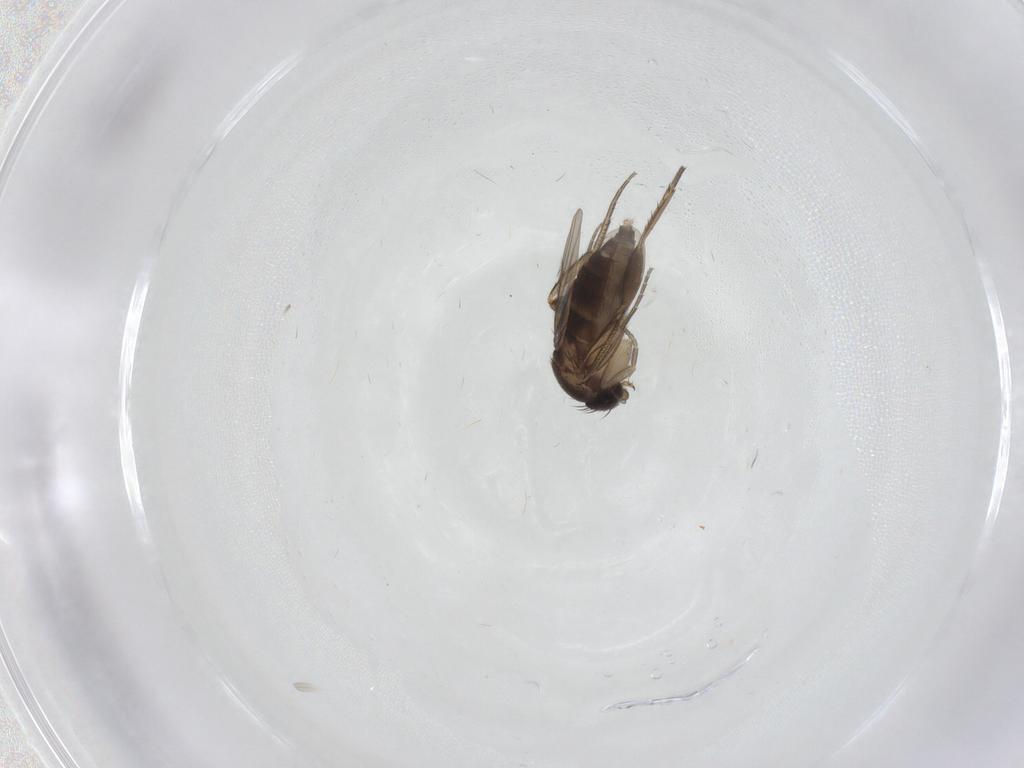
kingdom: Animalia
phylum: Arthropoda
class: Insecta
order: Diptera
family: Phoridae
